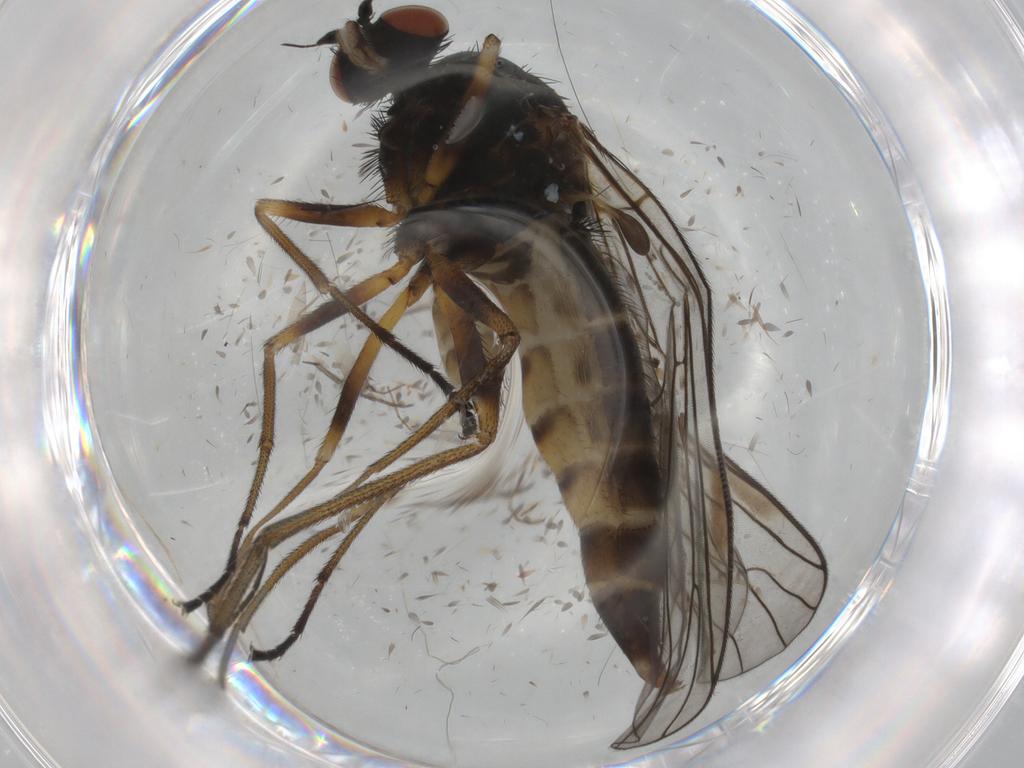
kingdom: Animalia
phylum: Arthropoda
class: Insecta
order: Diptera
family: Brachystomatidae
